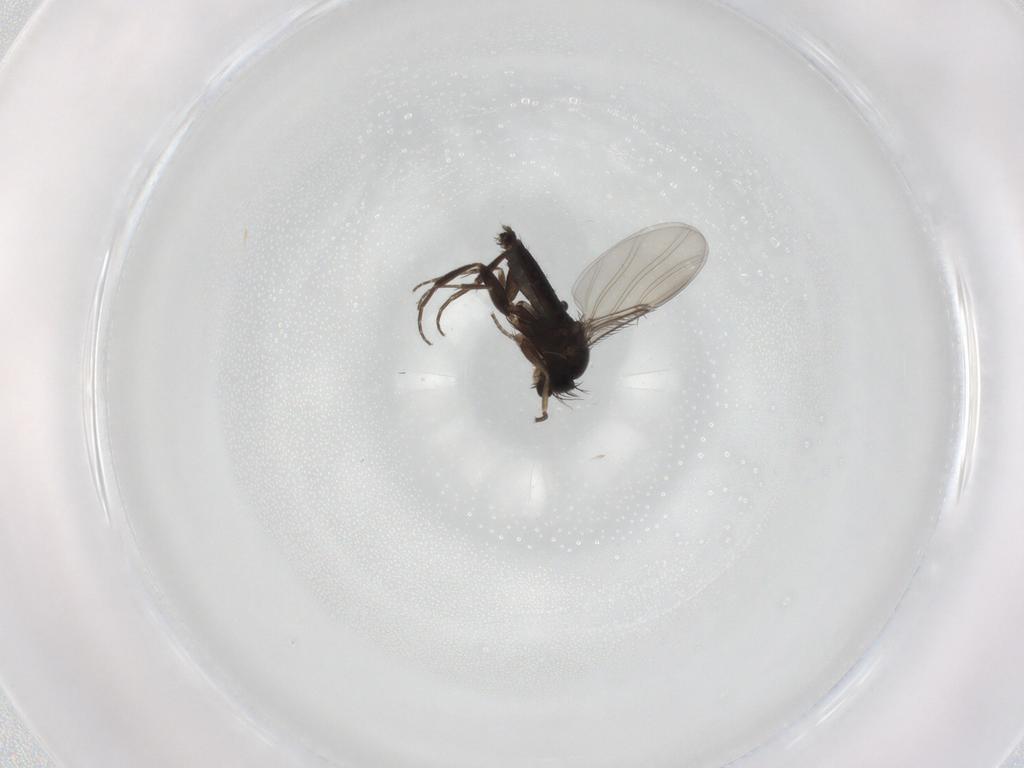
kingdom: Animalia
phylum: Arthropoda
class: Insecta
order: Diptera
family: Phoridae
